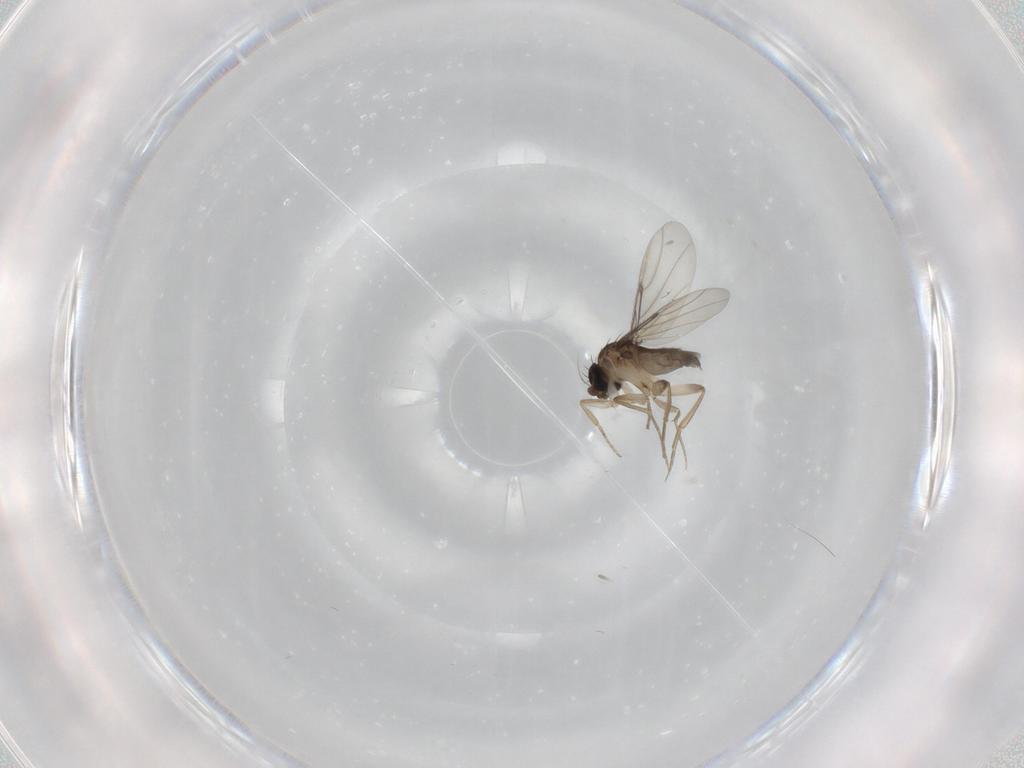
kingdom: Animalia
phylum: Arthropoda
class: Insecta
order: Diptera
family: Phoridae
